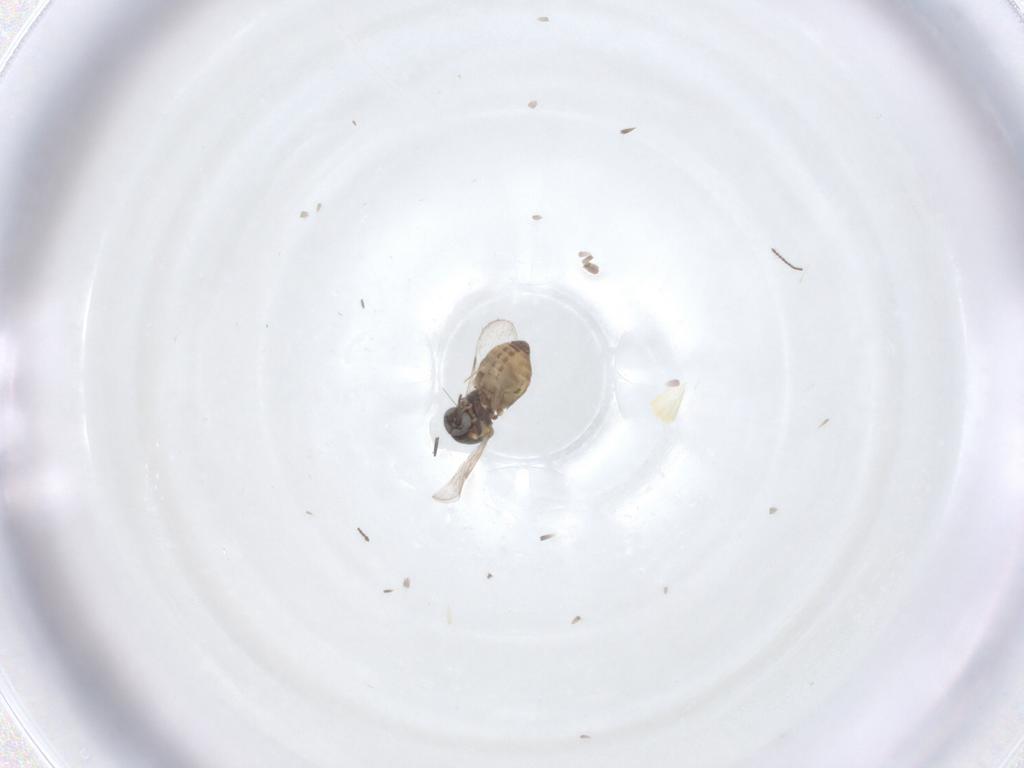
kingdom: Animalia
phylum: Arthropoda
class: Insecta
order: Diptera
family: Ceratopogonidae
